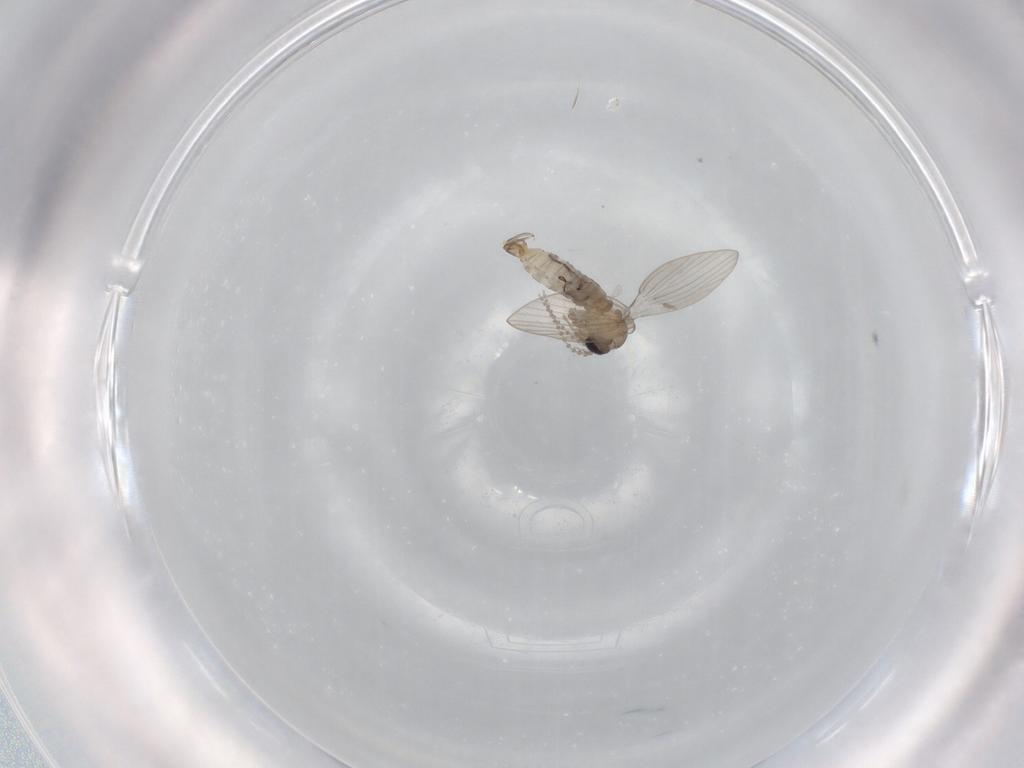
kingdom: Animalia
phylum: Arthropoda
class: Insecta
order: Diptera
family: Psychodidae
